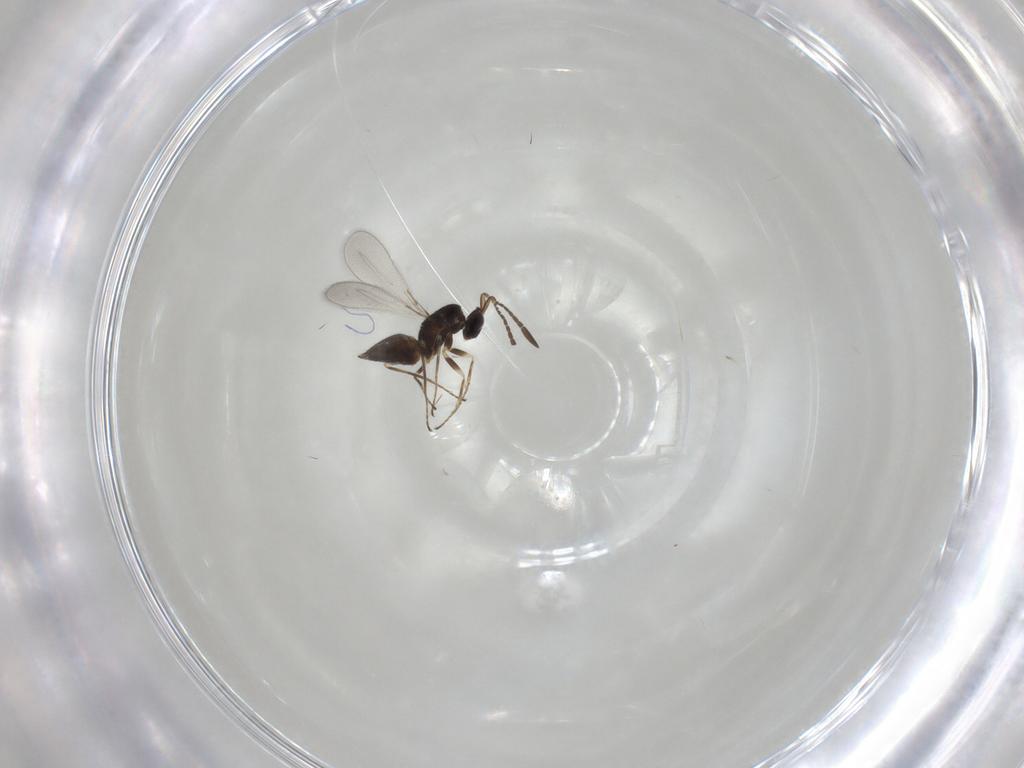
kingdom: Animalia
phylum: Arthropoda
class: Insecta
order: Hymenoptera
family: Mymaridae
